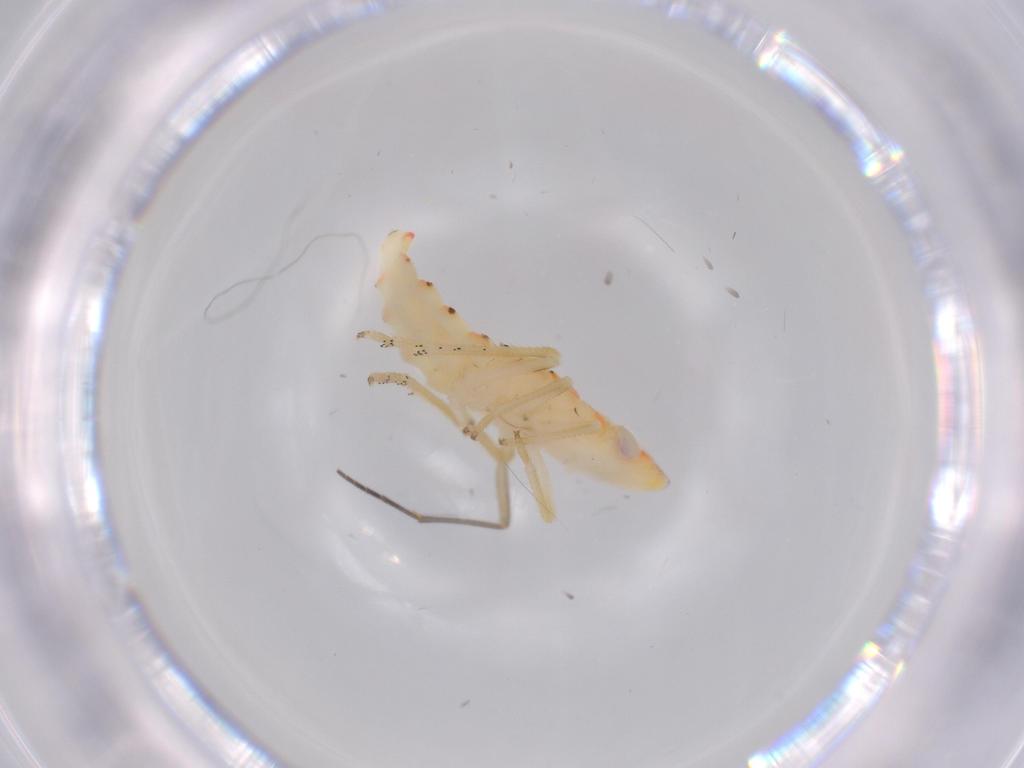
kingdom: Animalia
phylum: Arthropoda
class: Insecta
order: Hemiptera
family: Tropiduchidae
